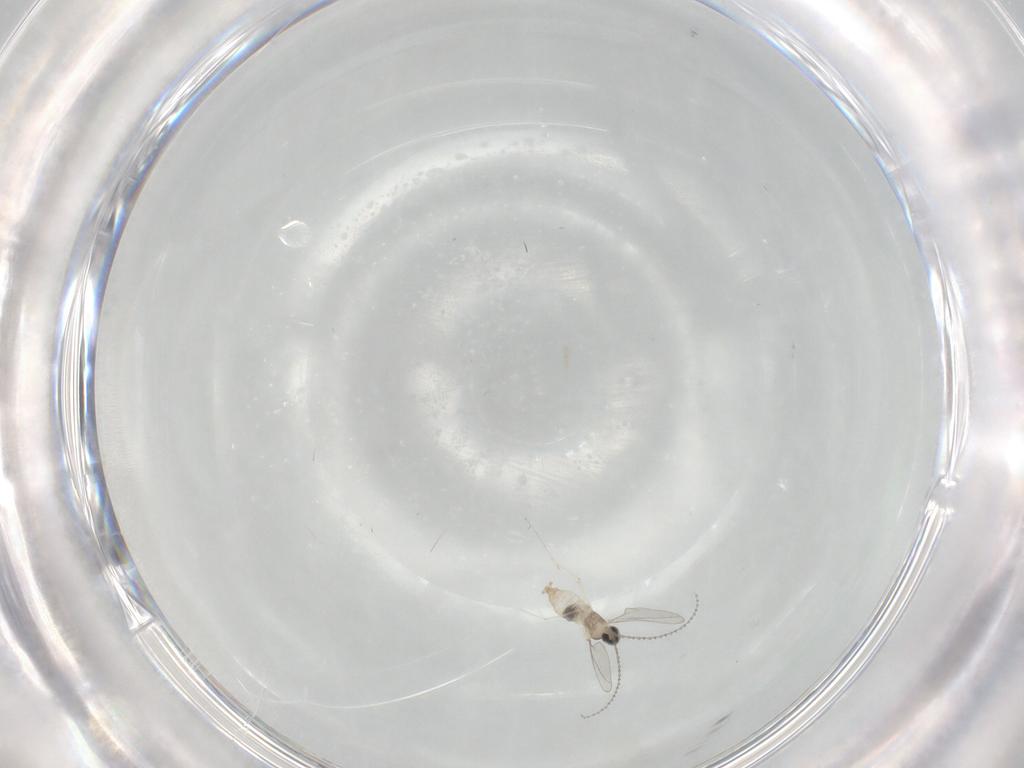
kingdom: Animalia
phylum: Arthropoda
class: Insecta
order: Diptera
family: Cecidomyiidae
